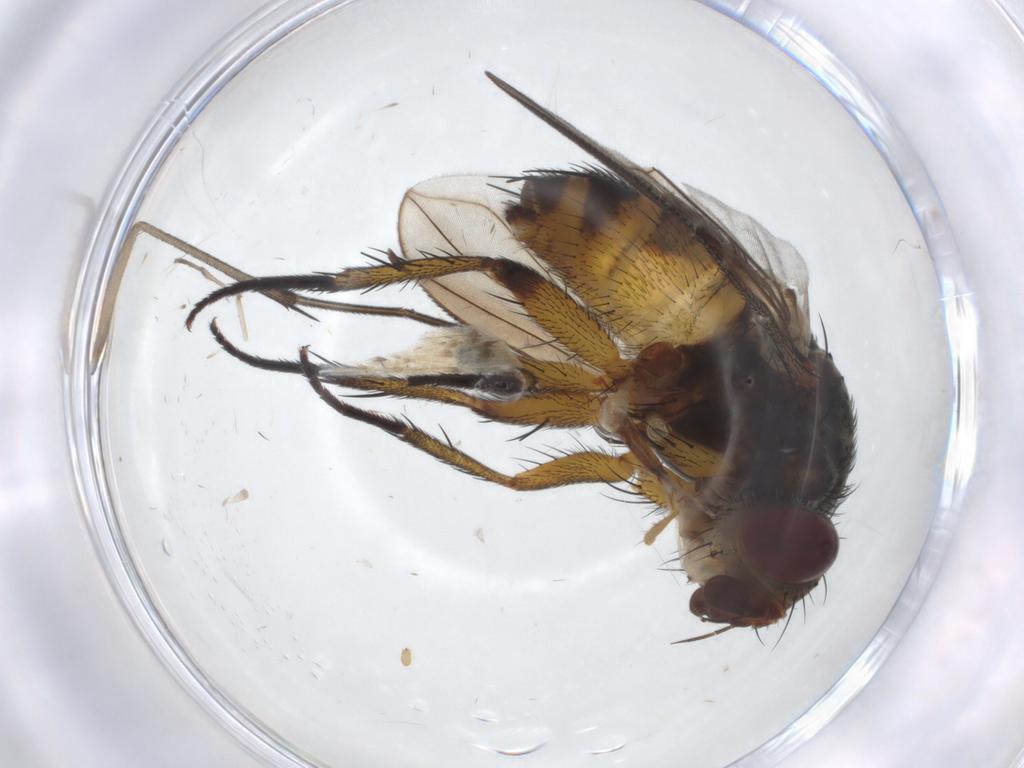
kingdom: Animalia
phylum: Arthropoda
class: Insecta
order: Diptera
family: Psychodidae
